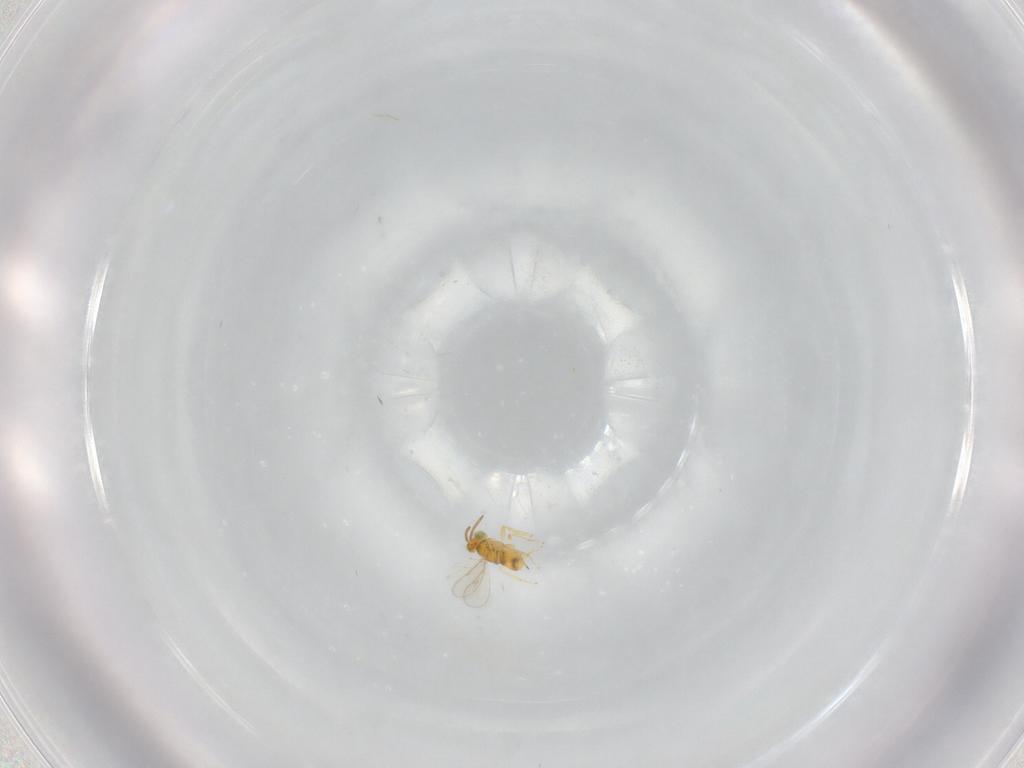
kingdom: Animalia
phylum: Arthropoda
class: Insecta
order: Hymenoptera
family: Aphelinidae
